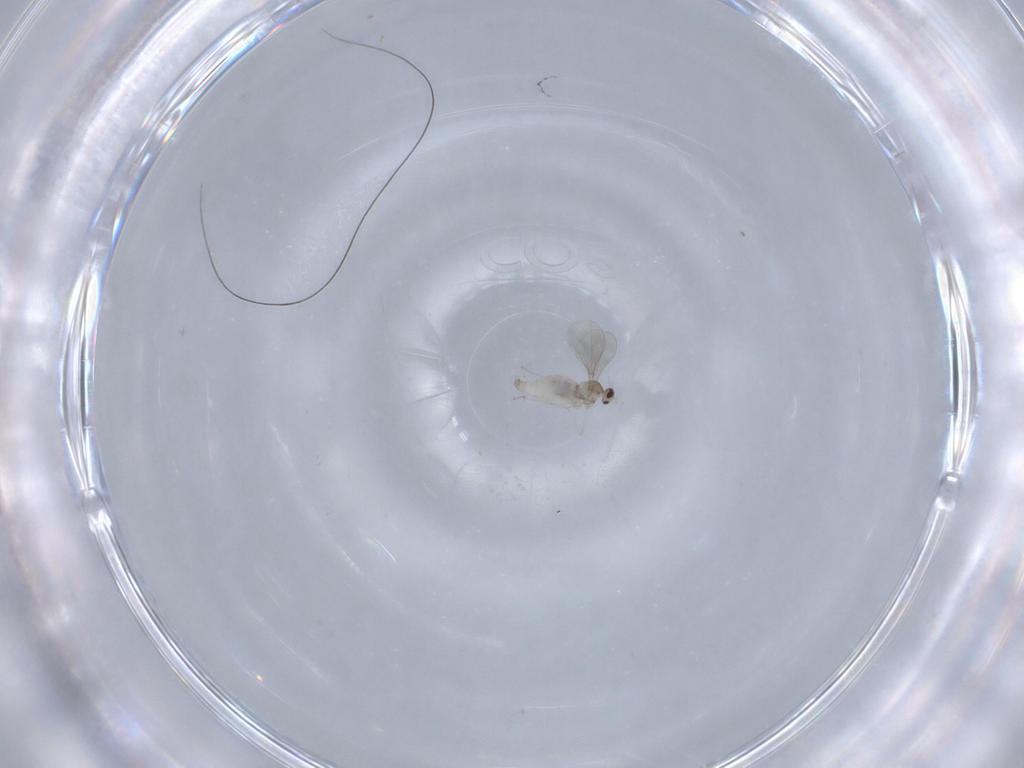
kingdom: Animalia
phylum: Arthropoda
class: Insecta
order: Diptera
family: Cecidomyiidae
